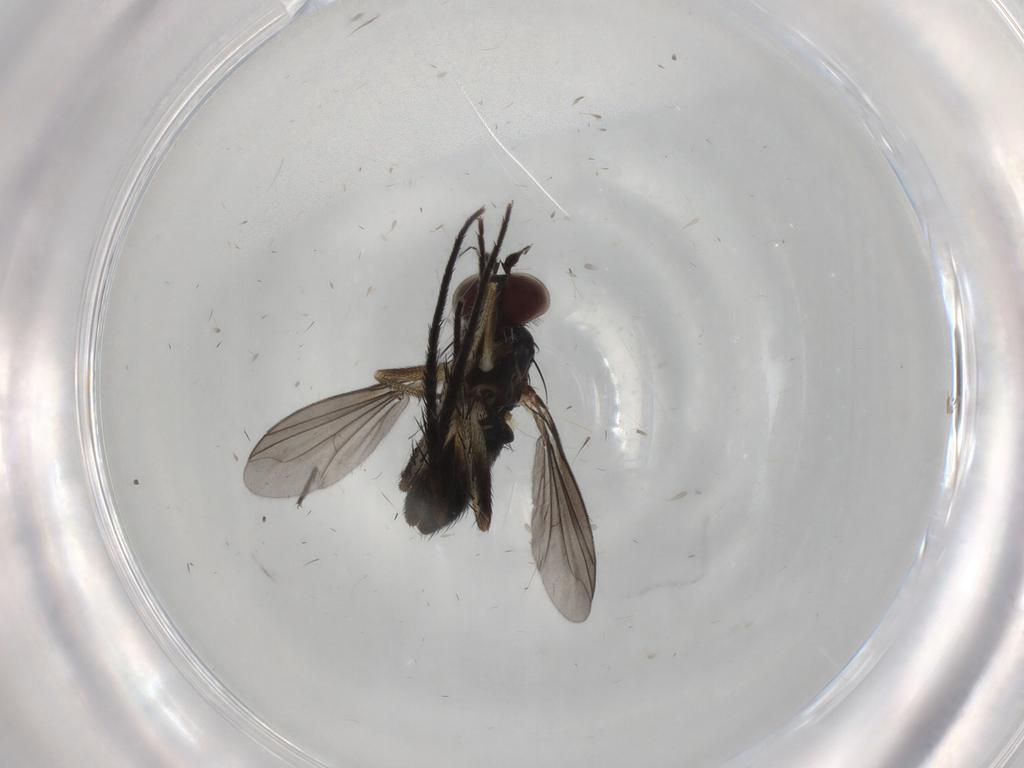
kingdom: Animalia
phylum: Arthropoda
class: Insecta
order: Diptera
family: Dolichopodidae
